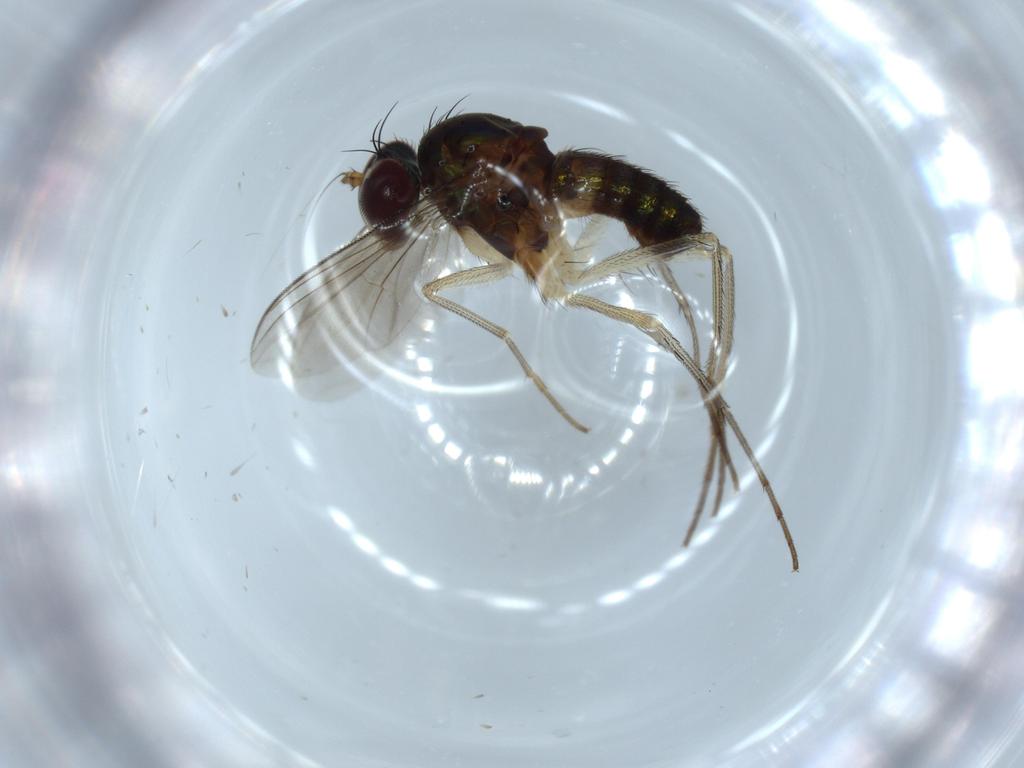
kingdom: Animalia
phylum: Arthropoda
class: Insecta
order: Diptera
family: Dolichopodidae
